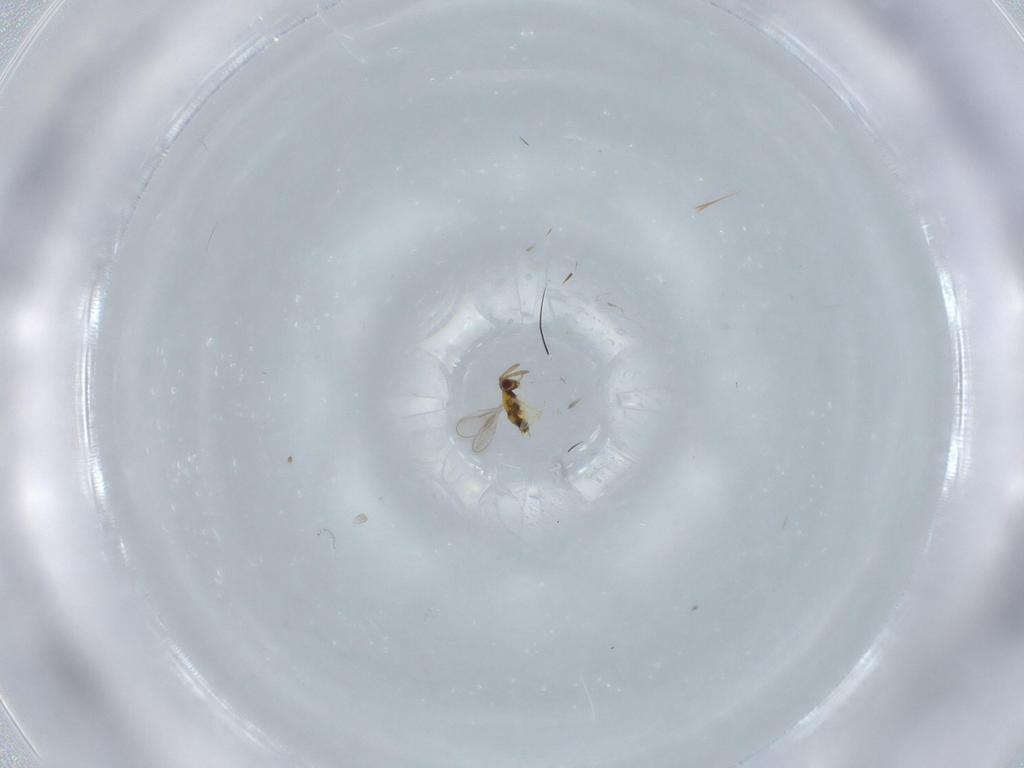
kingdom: Animalia
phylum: Arthropoda
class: Insecta
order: Hymenoptera
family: Aphelinidae
